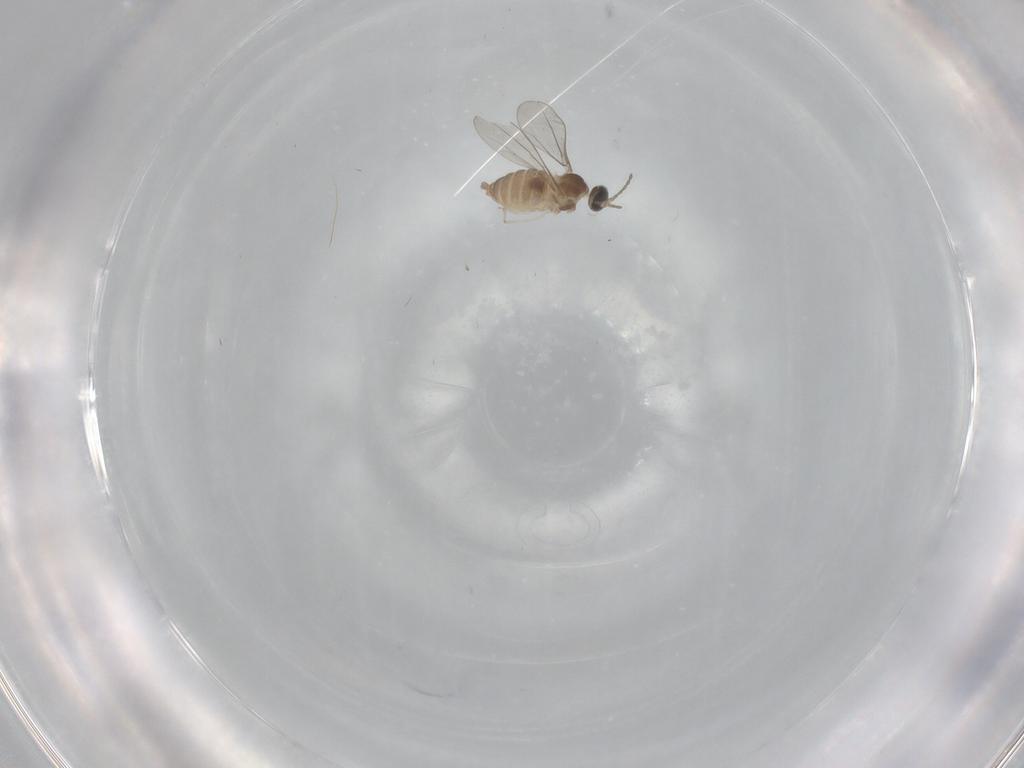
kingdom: Animalia
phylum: Arthropoda
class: Insecta
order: Diptera
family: Cecidomyiidae
